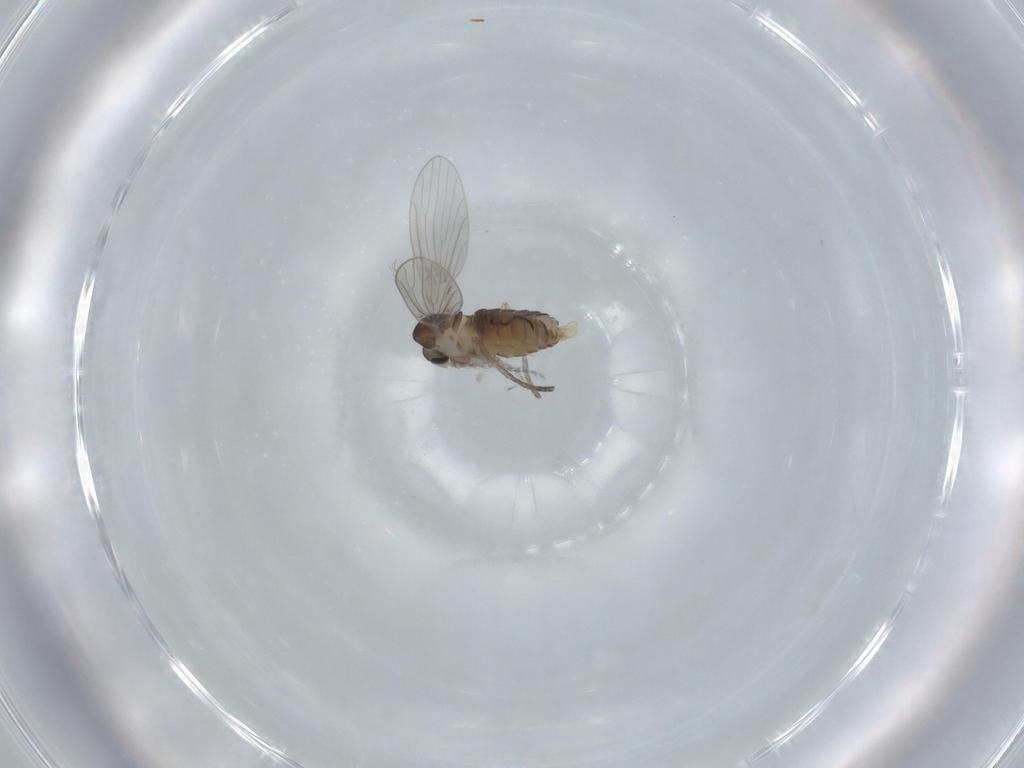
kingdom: Animalia
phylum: Arthropoda
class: Insecta
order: Diptera
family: Psychodidae
